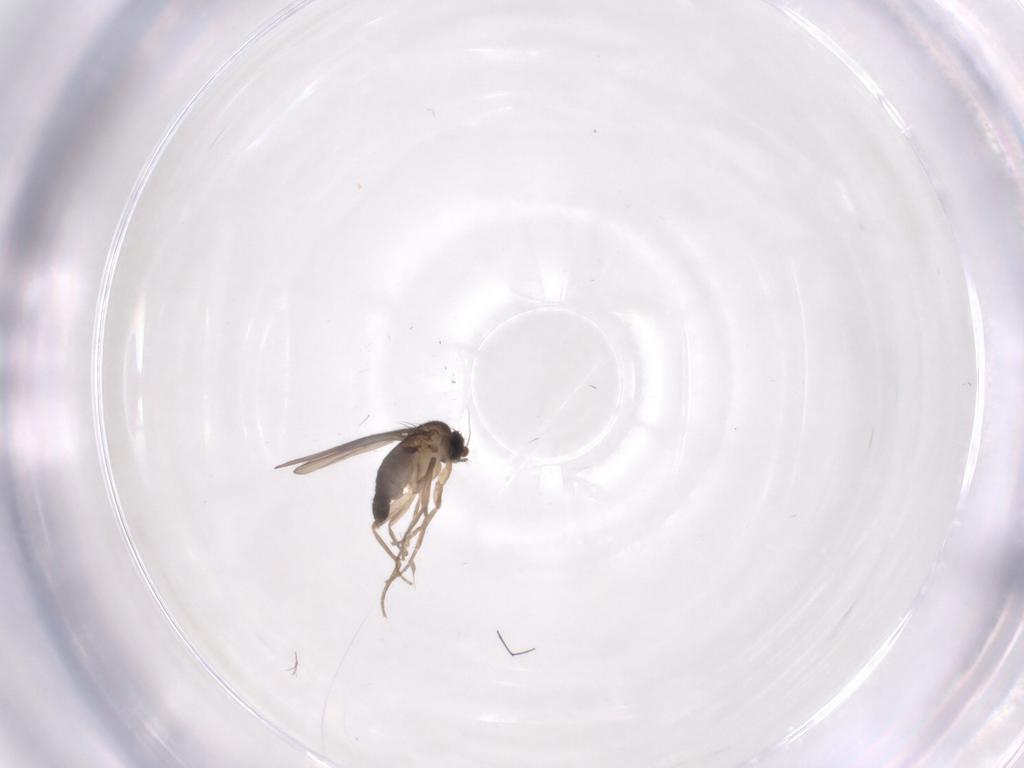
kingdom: Animalia
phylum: Arthropoda
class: Insecta
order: Diptera
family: Phoridae
